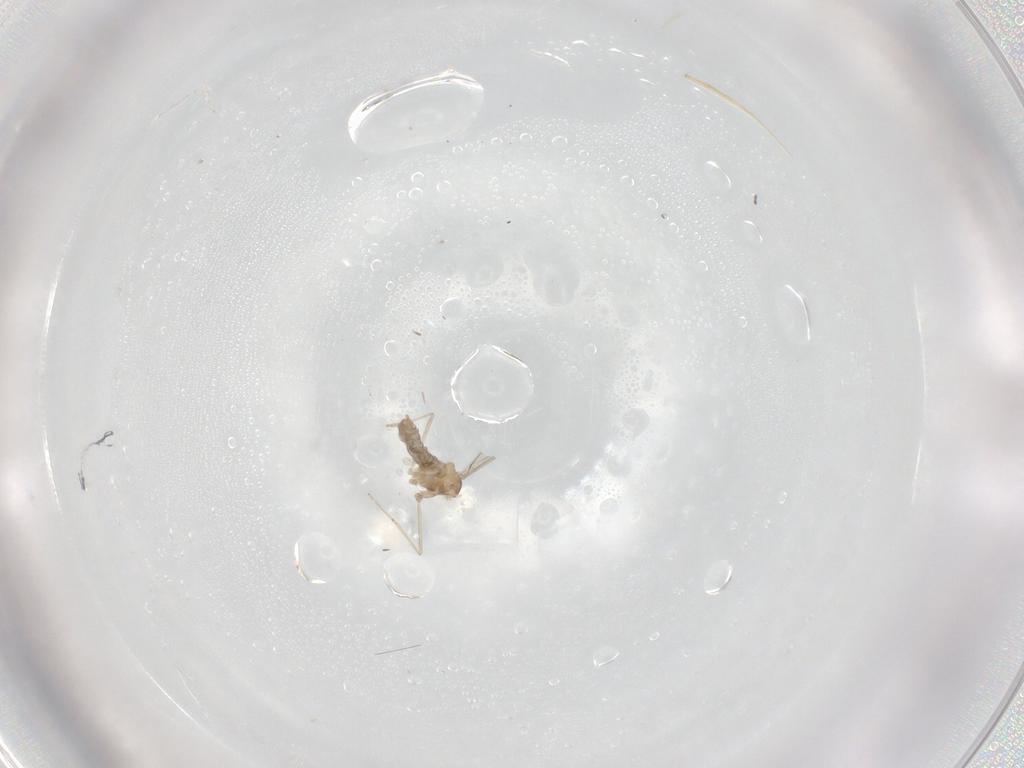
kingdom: Animalia
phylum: Arthropoda
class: Insecta
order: Diptera
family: Cecidomyiidae
